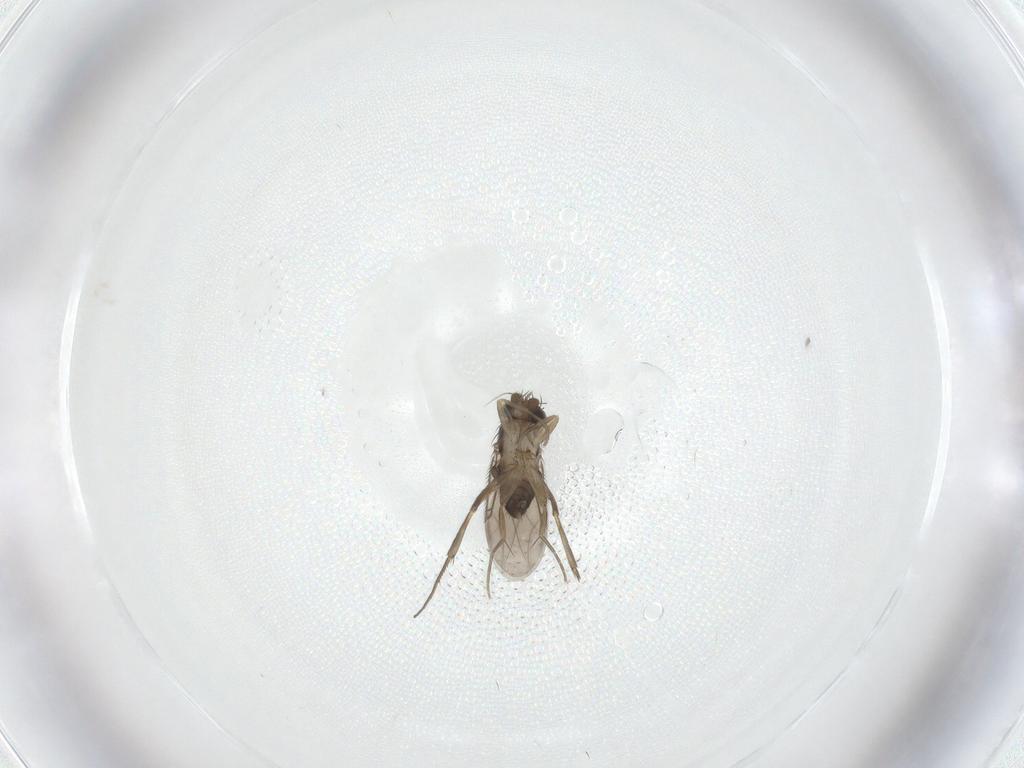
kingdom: Animalia
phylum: Arthropoda
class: Insecta
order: Diptera
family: Phoridae
